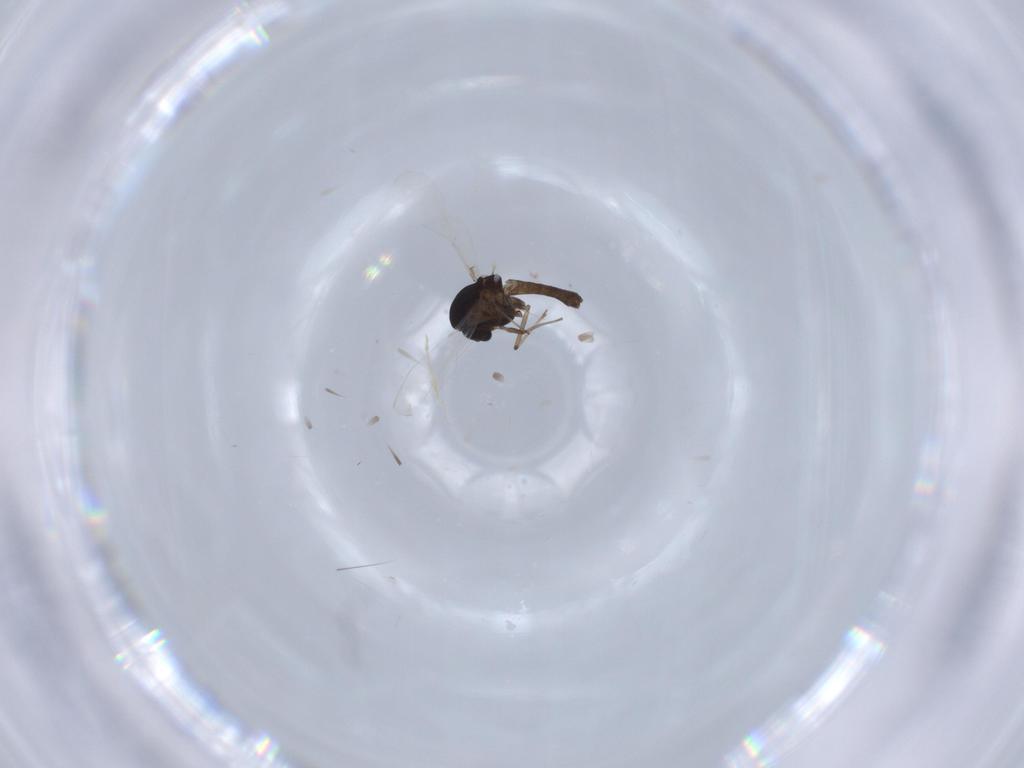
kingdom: Animalia
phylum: Arthropoda
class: Insecta
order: Diptera
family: Chironomidae
